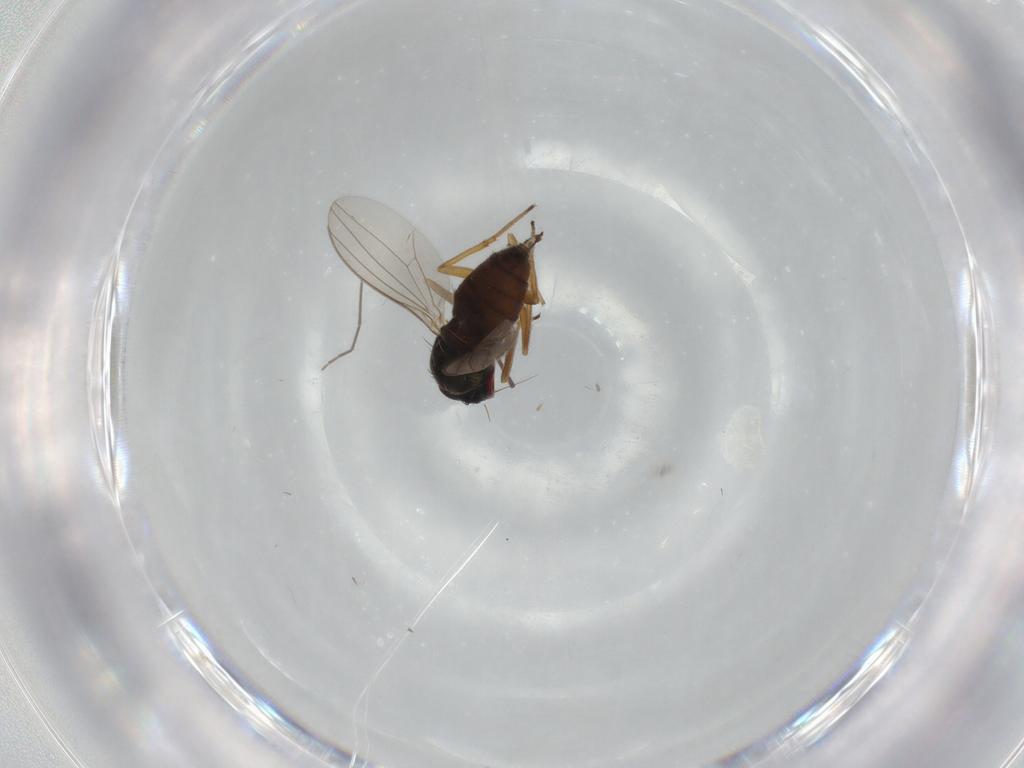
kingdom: Animalia
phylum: Arthropoda
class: Insecta
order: Diptera
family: Dolichopodidae
